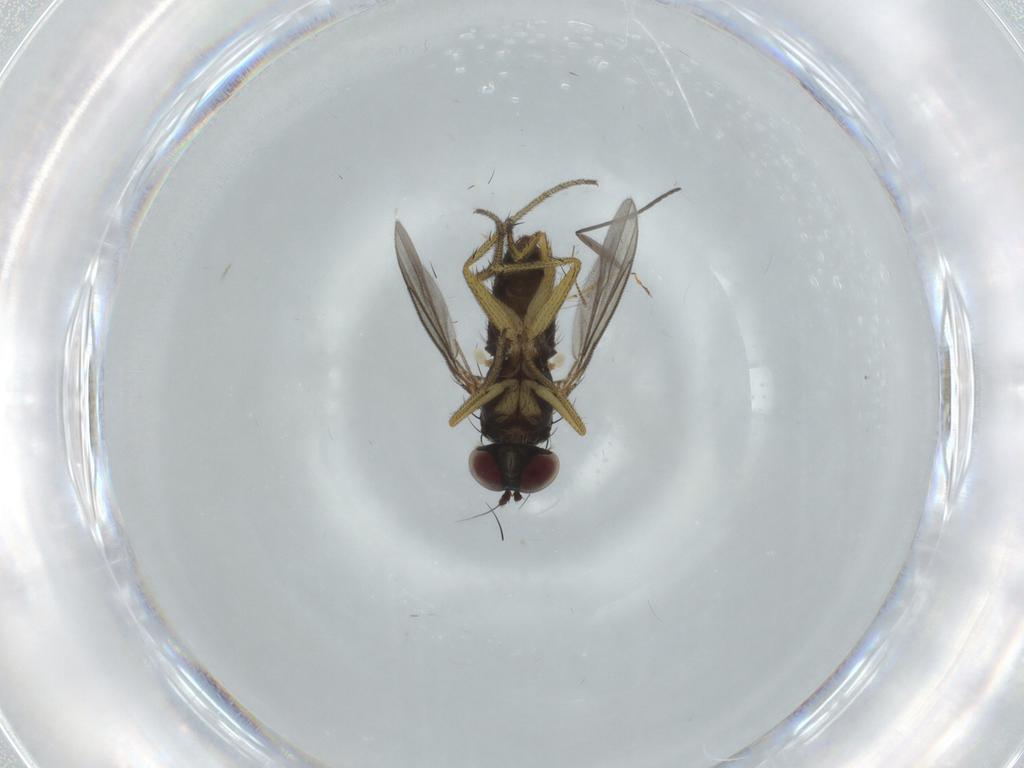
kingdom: Animalia
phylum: Arthropoda
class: Insecta
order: Diptera
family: Dolichopodidae
